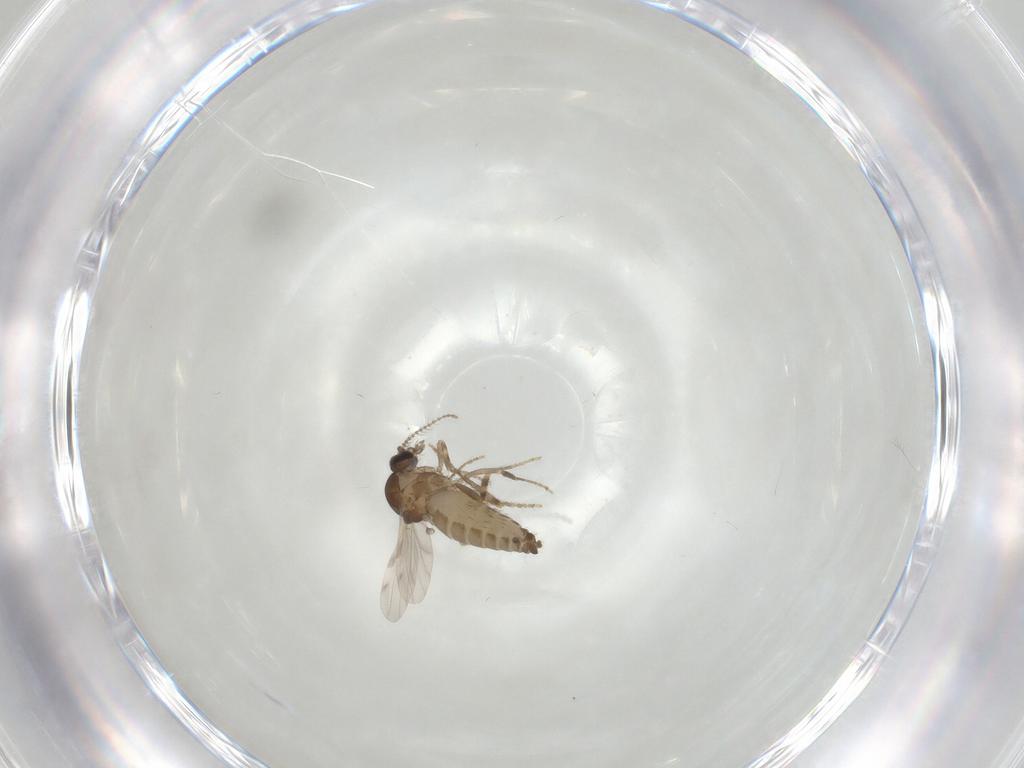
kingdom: Animalia
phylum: Arthropoda
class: Insecta
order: Diptera
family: Ceratopogonidae
